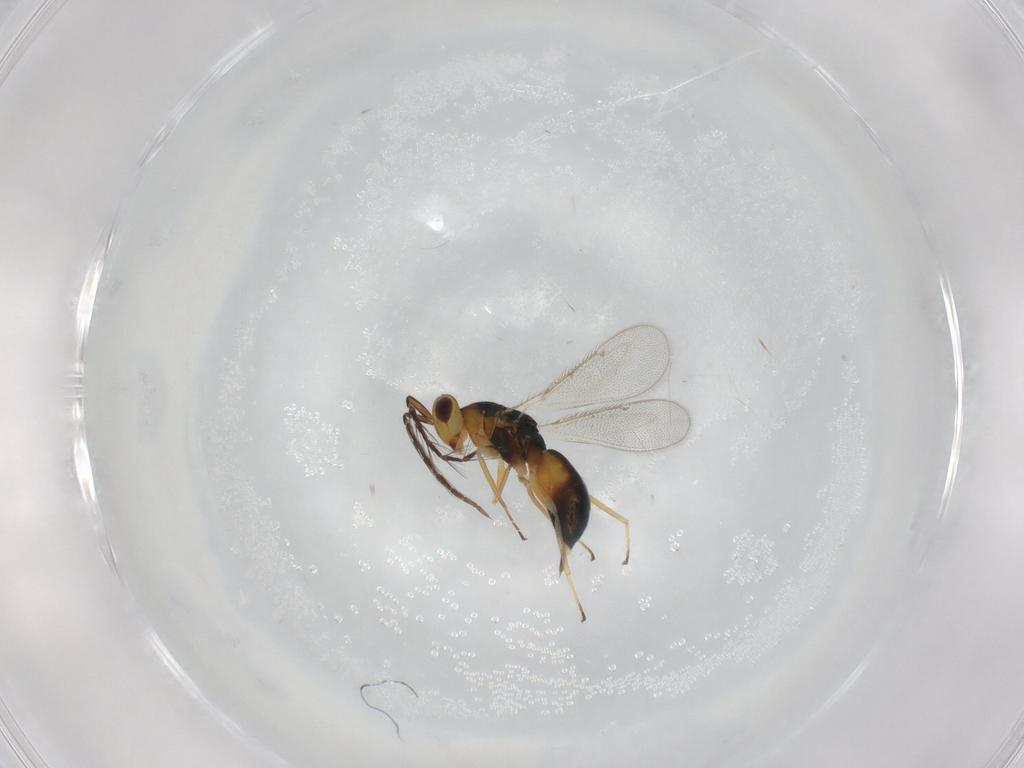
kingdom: Animalia
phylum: Arthropoda
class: Insecta
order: Hymenoptera
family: Eulophidae
